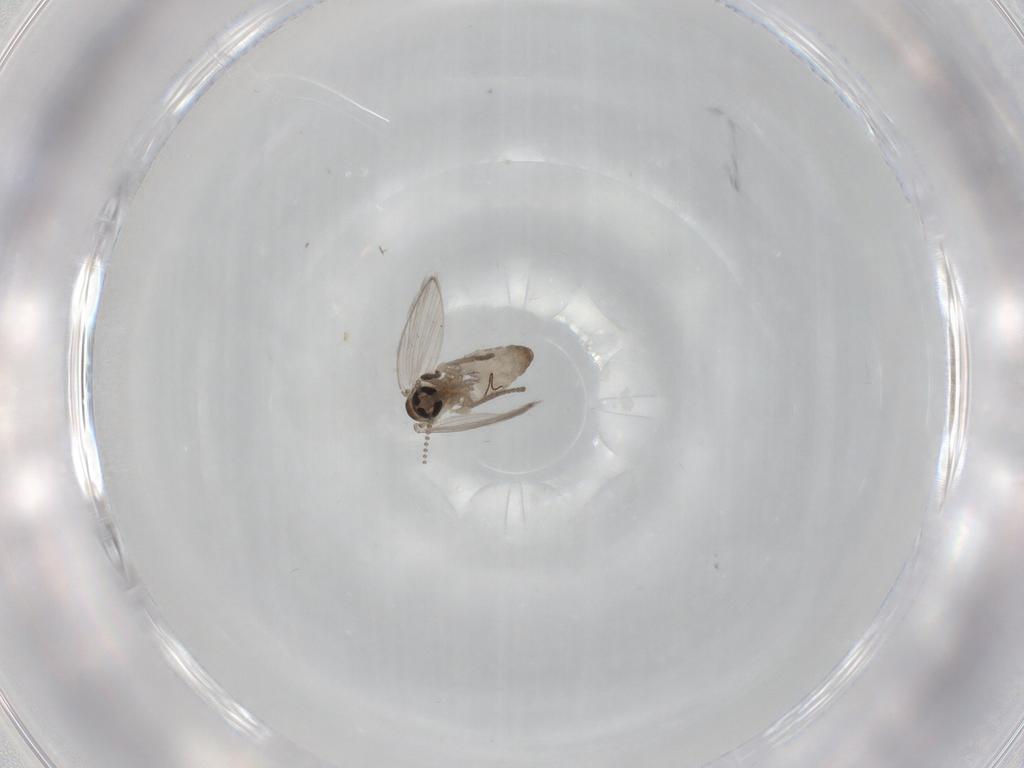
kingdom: Animalia
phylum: Arthropoda
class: Insecta
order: Diptera
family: Psychodidae
